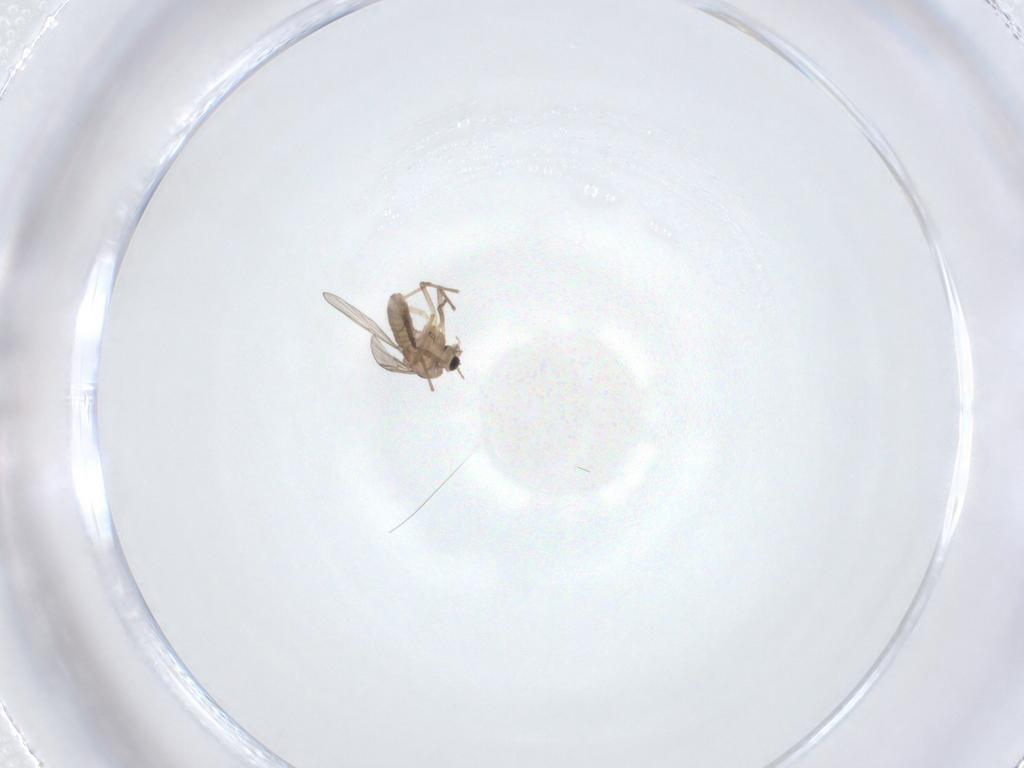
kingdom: Animalia
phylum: Arthropoda
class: Insecta
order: Diptera
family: Chironomidae
